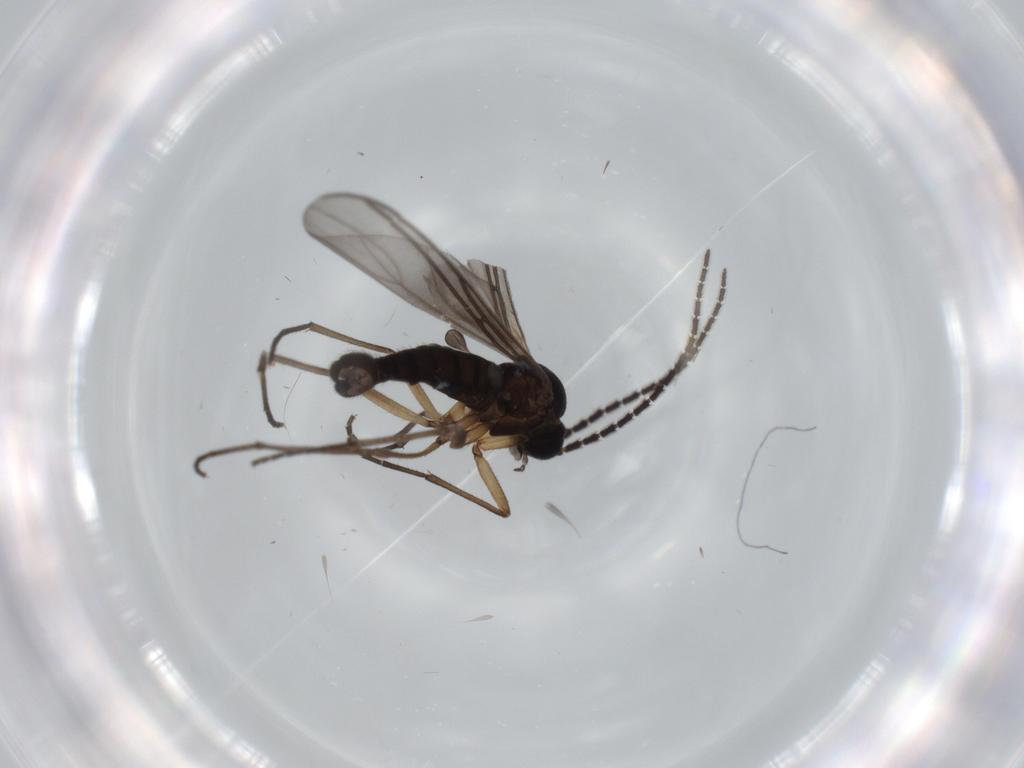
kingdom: Animalia
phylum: Arthropoda
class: Insecta
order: Diptera
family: Sciaridae
